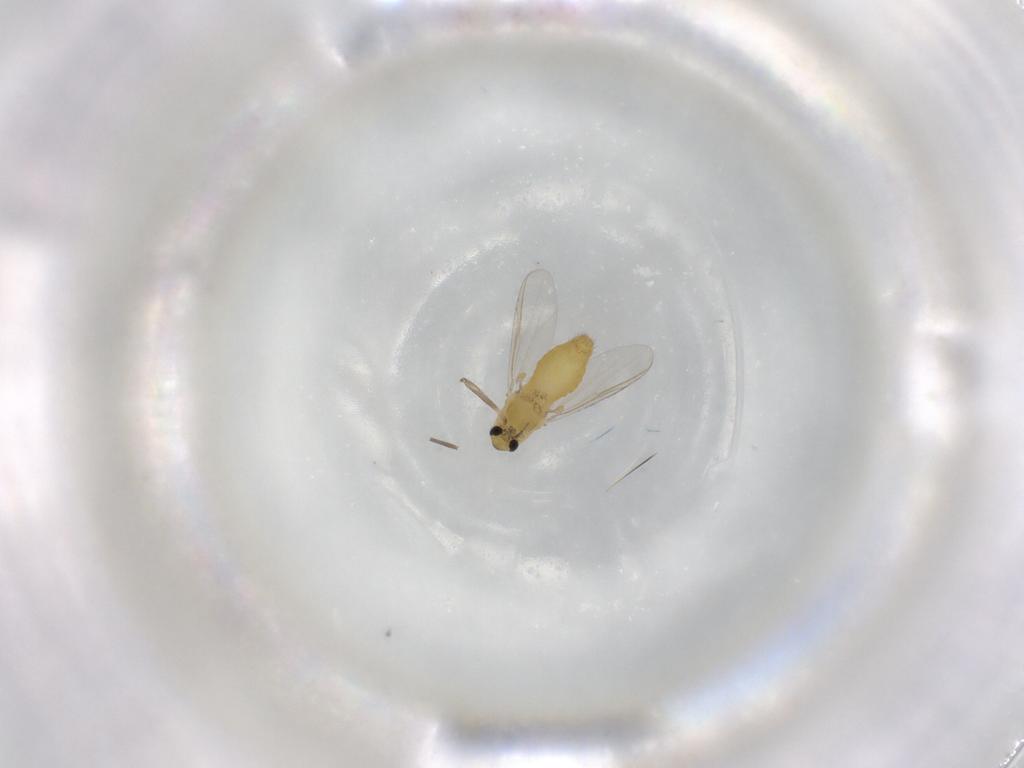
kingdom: Animalia
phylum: Arthropoda
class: Insecta
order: Diptera
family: Chironomidae
